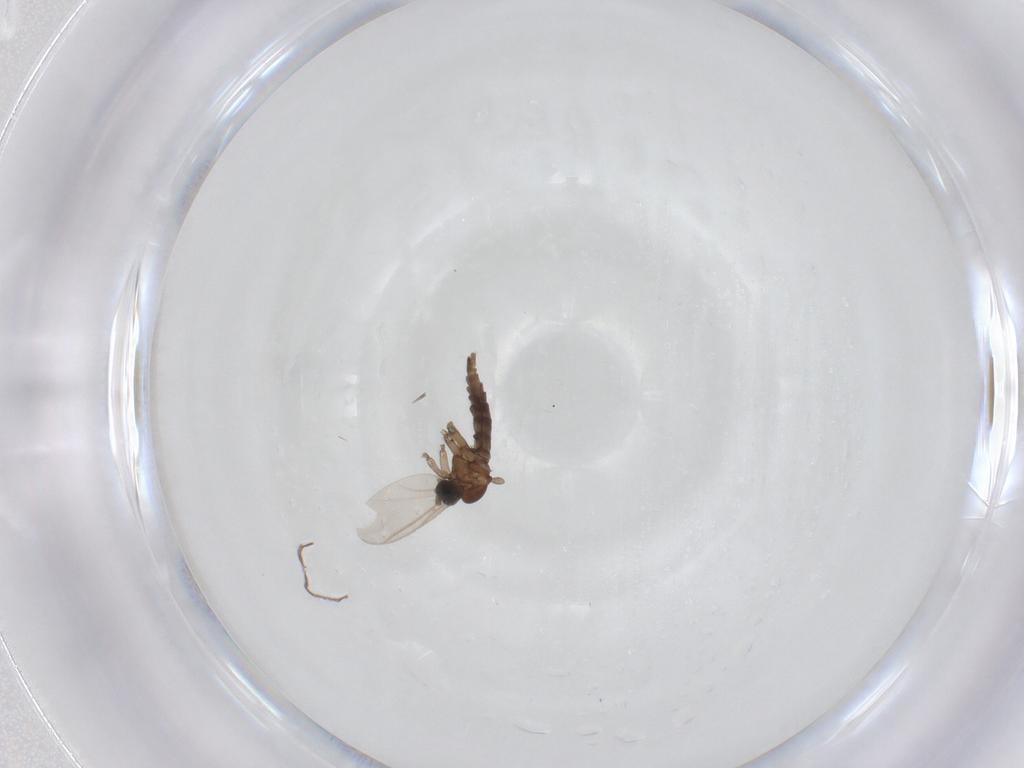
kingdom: Animalia
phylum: Arthropoda
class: Insecta
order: Diptera
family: Sciaridae
